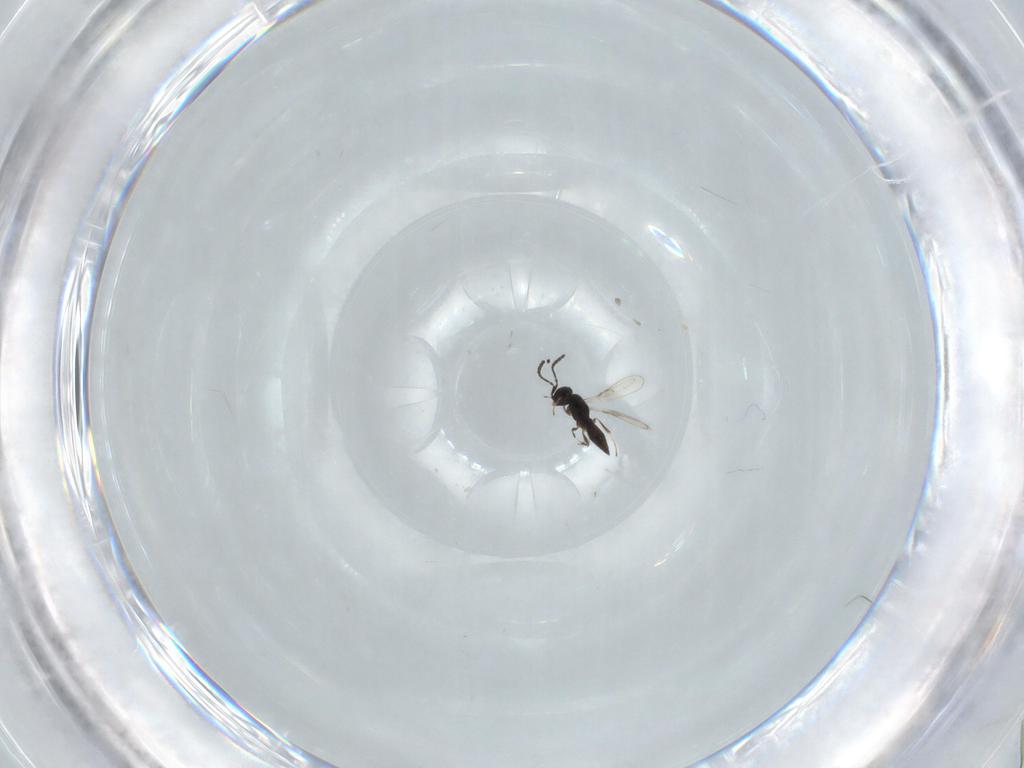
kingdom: Animalia
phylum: Arthropoda
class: Insecta
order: Hymenoptera
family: Scelionidae
